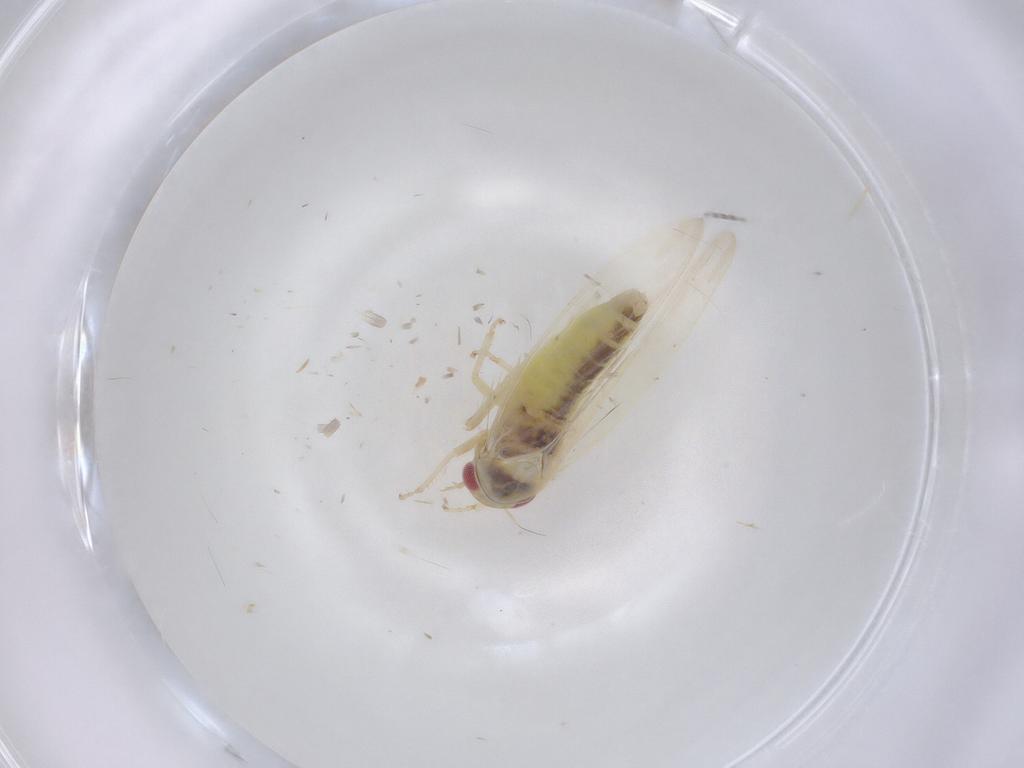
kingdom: Animalia
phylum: Arthropoda
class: Insecta
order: Hemiptera
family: Cicadellidae
